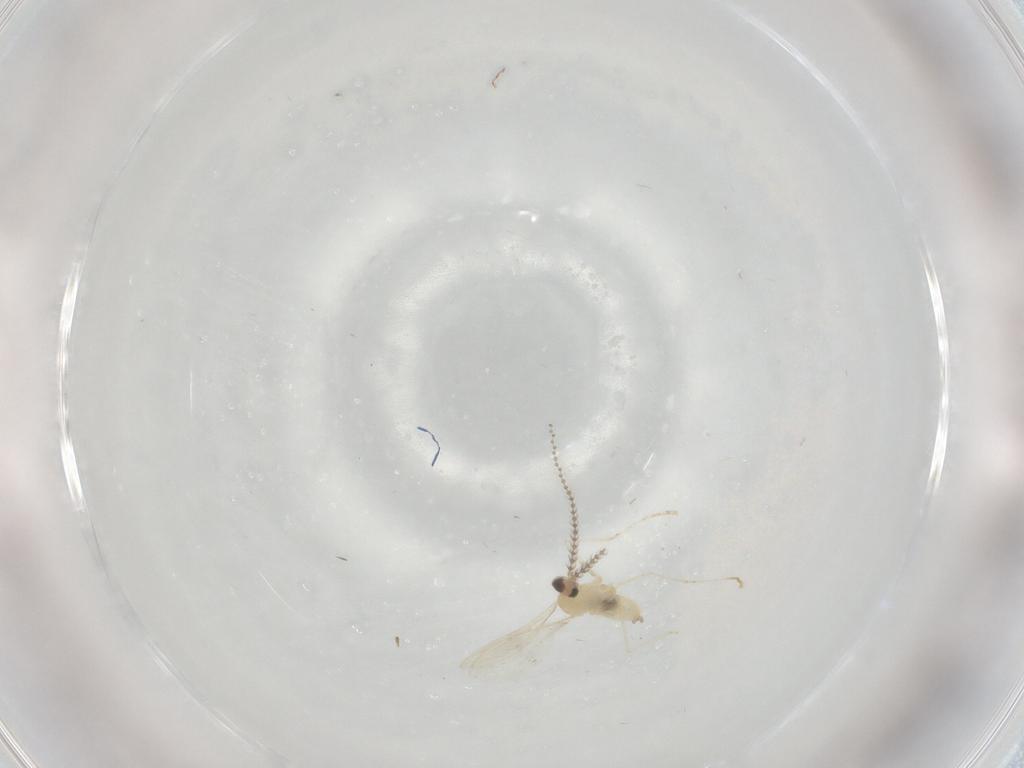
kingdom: Animalia
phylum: Arthropoda
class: Insecta
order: Diptera
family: Cecidomyiidae
